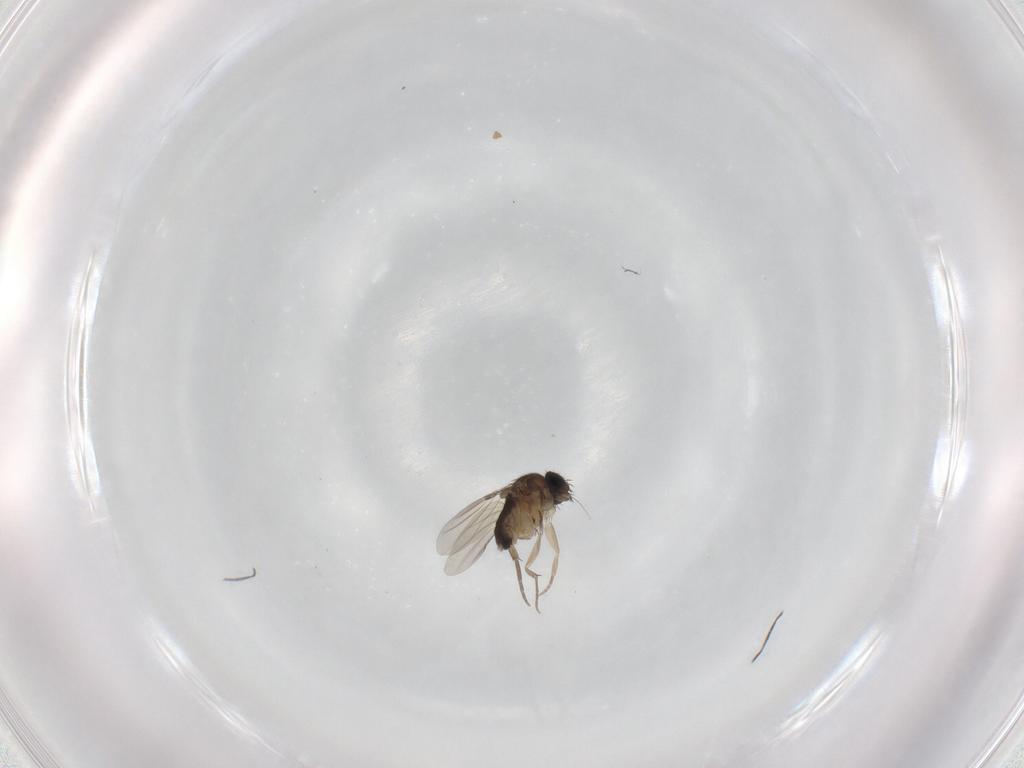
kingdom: Animalia
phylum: Arthropoda
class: Insecta
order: Diptera
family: Phoridae
